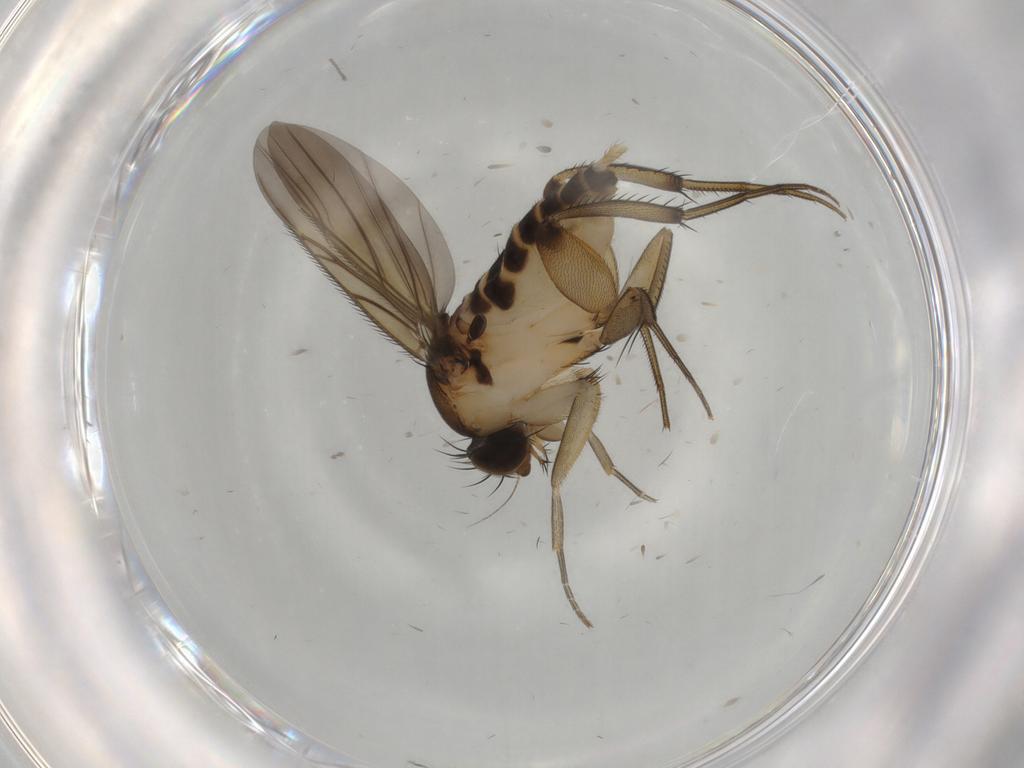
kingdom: Animalia
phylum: Arthropoda
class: Insecta
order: Diptera
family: Phoridae
